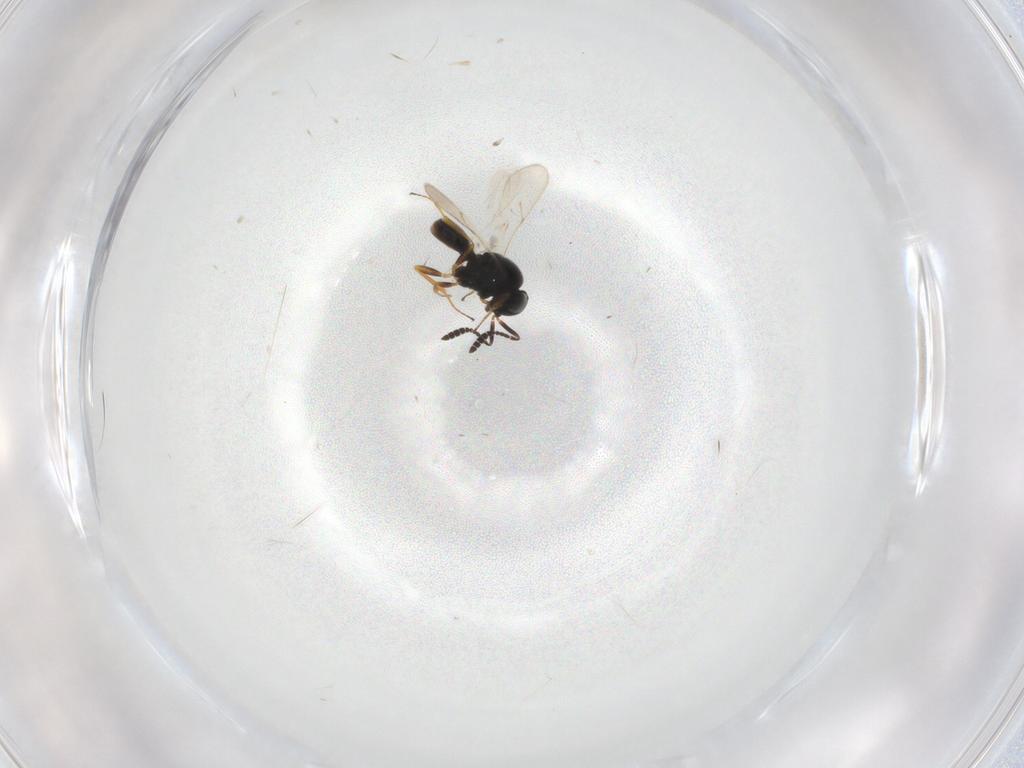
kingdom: Animalia
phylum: Arthropoda
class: Insecta
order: Hymenoptera
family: Scelionidae
